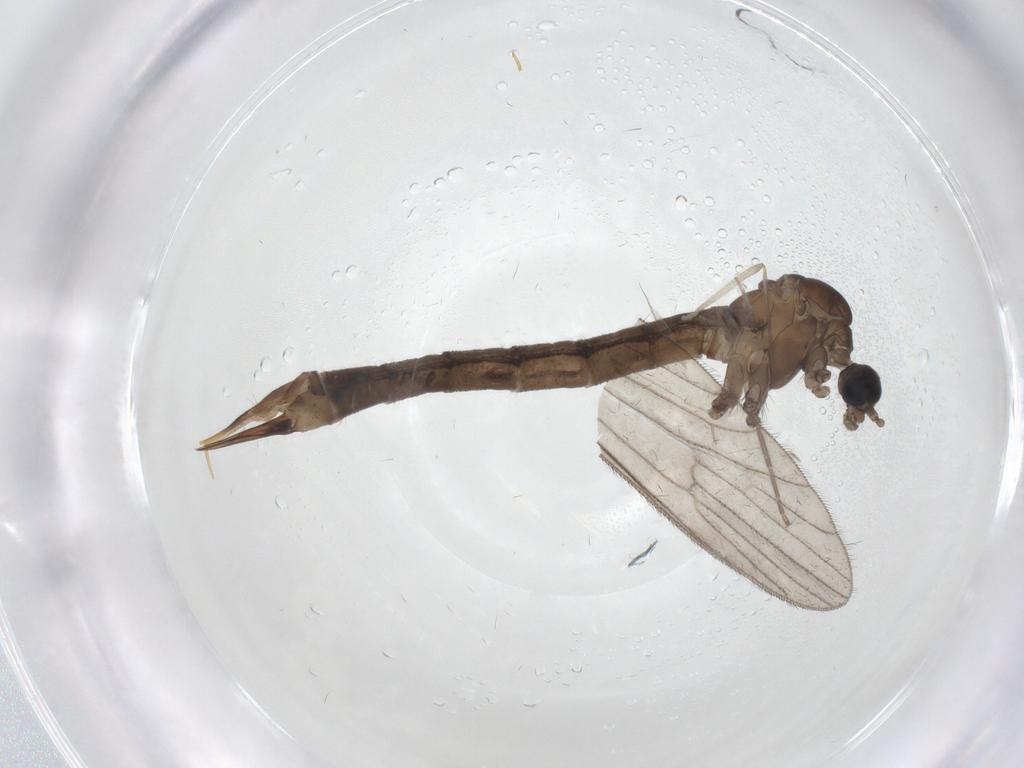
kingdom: Animalia
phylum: Arthropoda
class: Insecta
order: Diptera
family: Chironomidae
